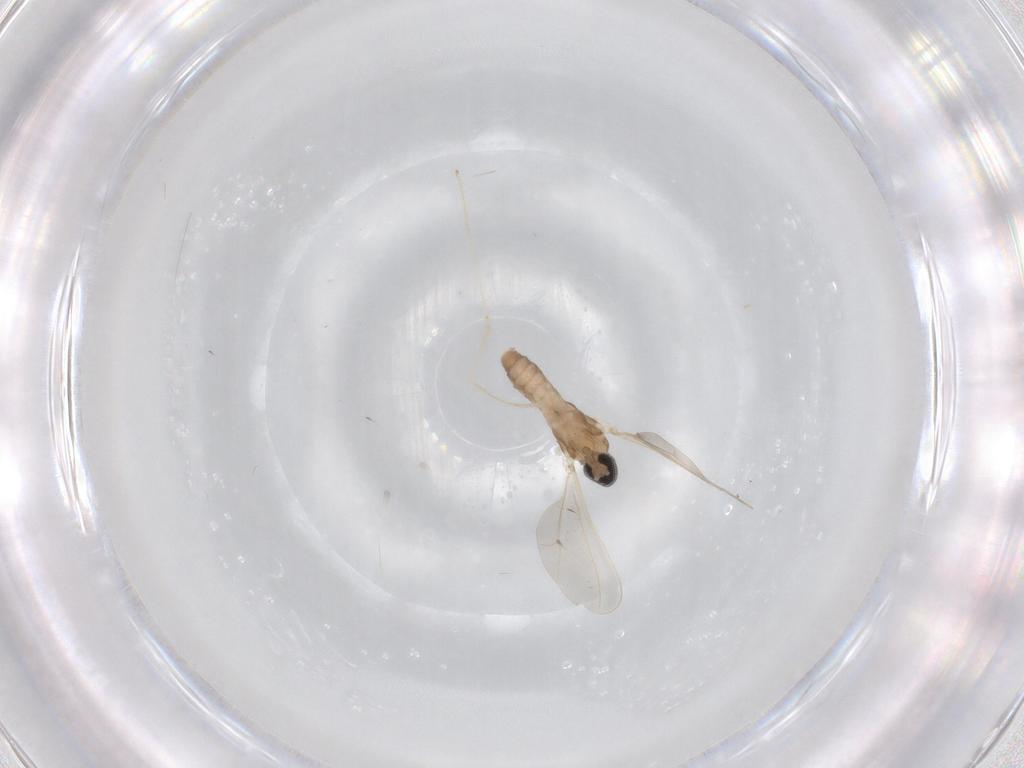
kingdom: Animalia
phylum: Arthropoda
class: Insecta
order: Diptera
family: Cecidomyiidae
